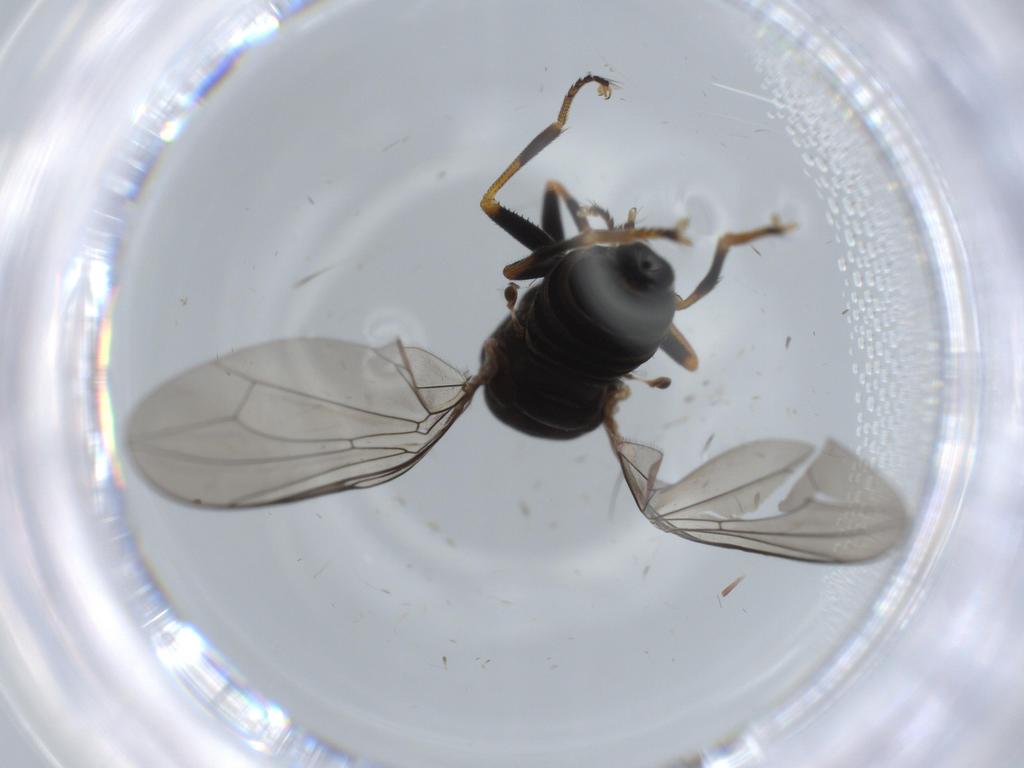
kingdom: Animalia
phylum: Arthropoda
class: Insecta
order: Diptera
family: Pipunculidae
